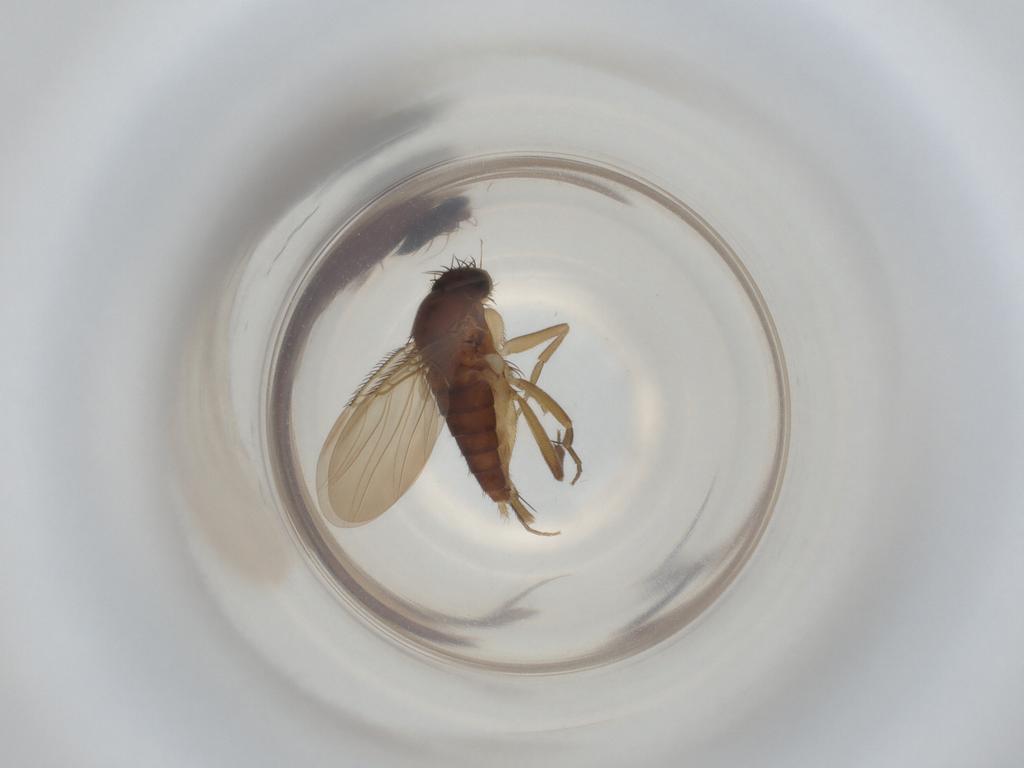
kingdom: Animalia
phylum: Arthropoda
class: Insecta
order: Diptera
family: Phoridae
